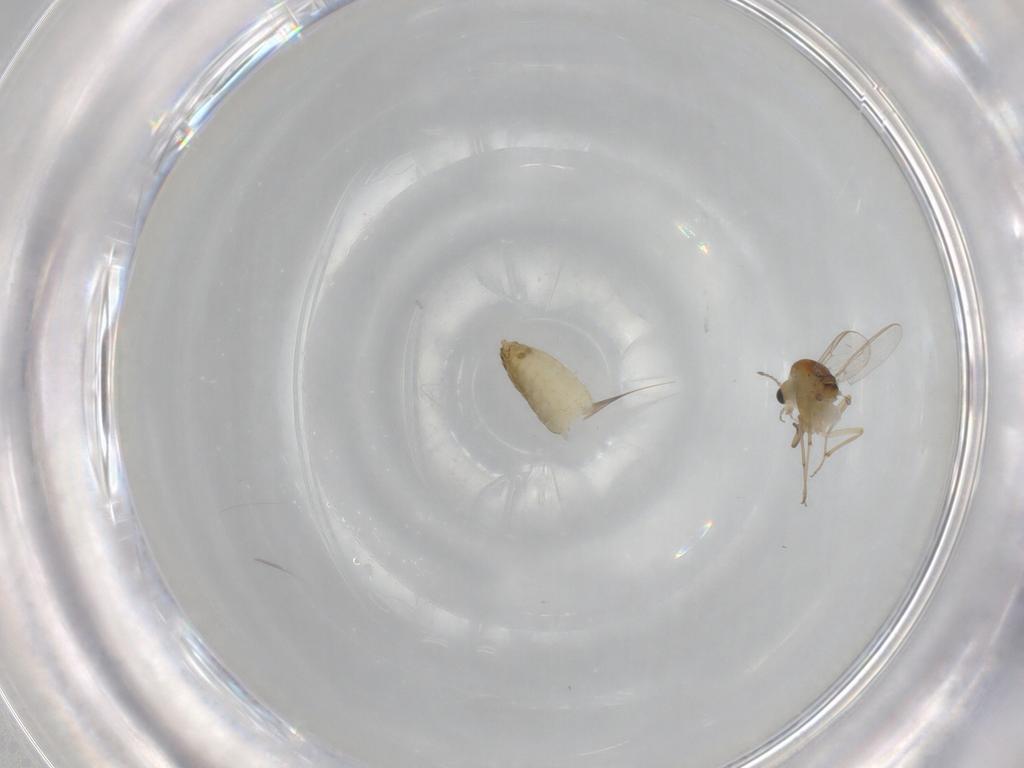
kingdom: Animalia
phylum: Arthropoda
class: Insecta
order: Diptera
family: Chironomidae
